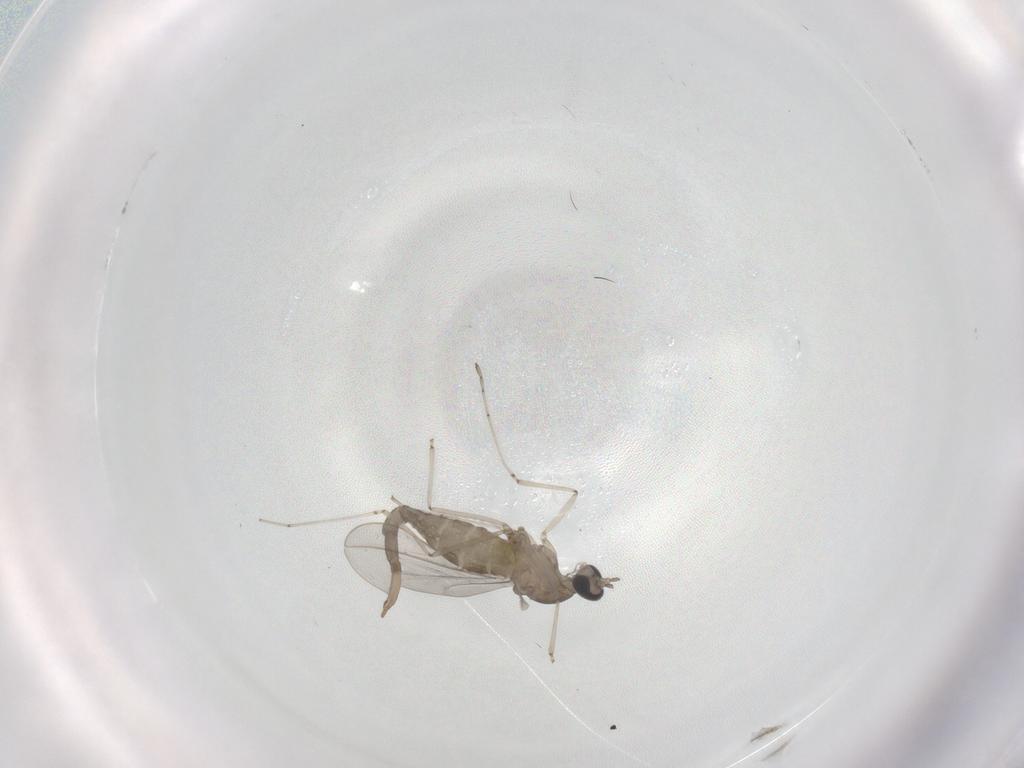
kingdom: Animalia
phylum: Arthropoda
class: Insecta
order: Diptera
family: Mycetophilidae
